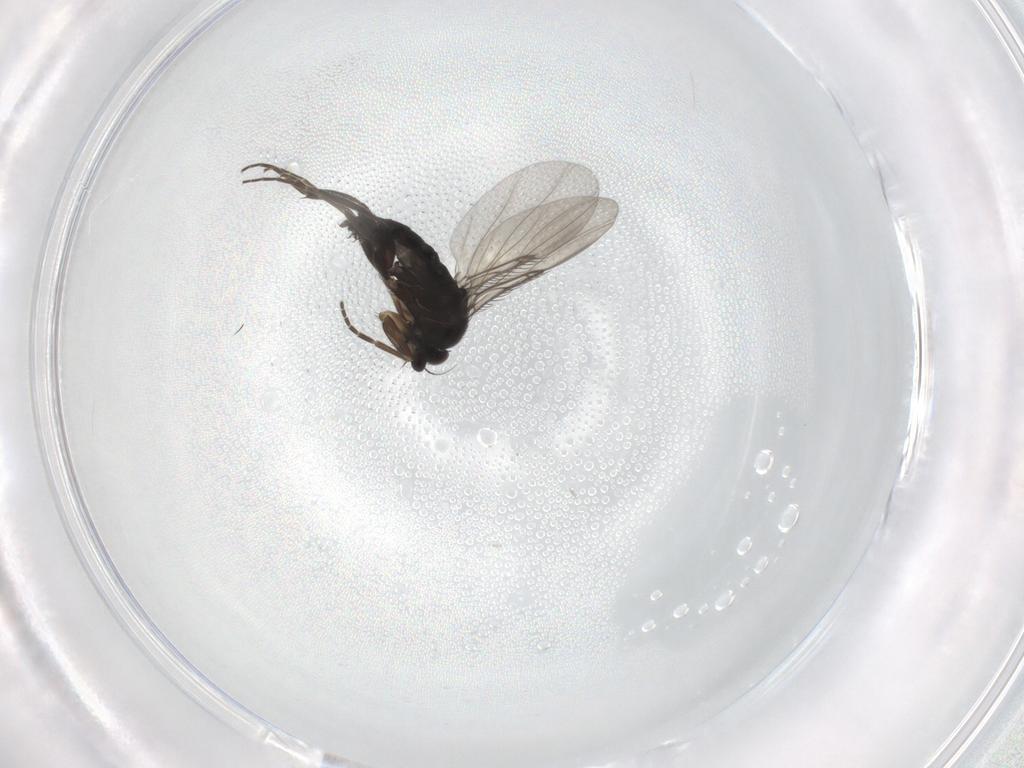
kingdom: Animalia
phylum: Arthropoda
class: Insecta
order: Diptera
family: Phoridae
